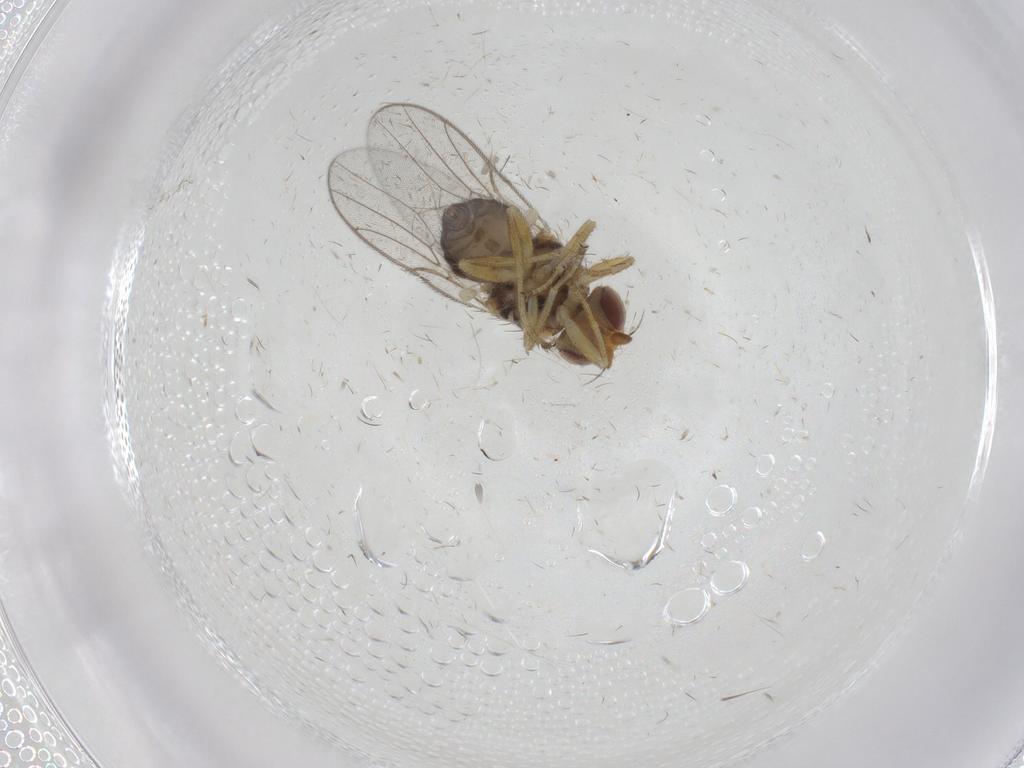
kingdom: Animalia
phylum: Arthropoda
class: Insecta
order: Diptera
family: Chloropidae
